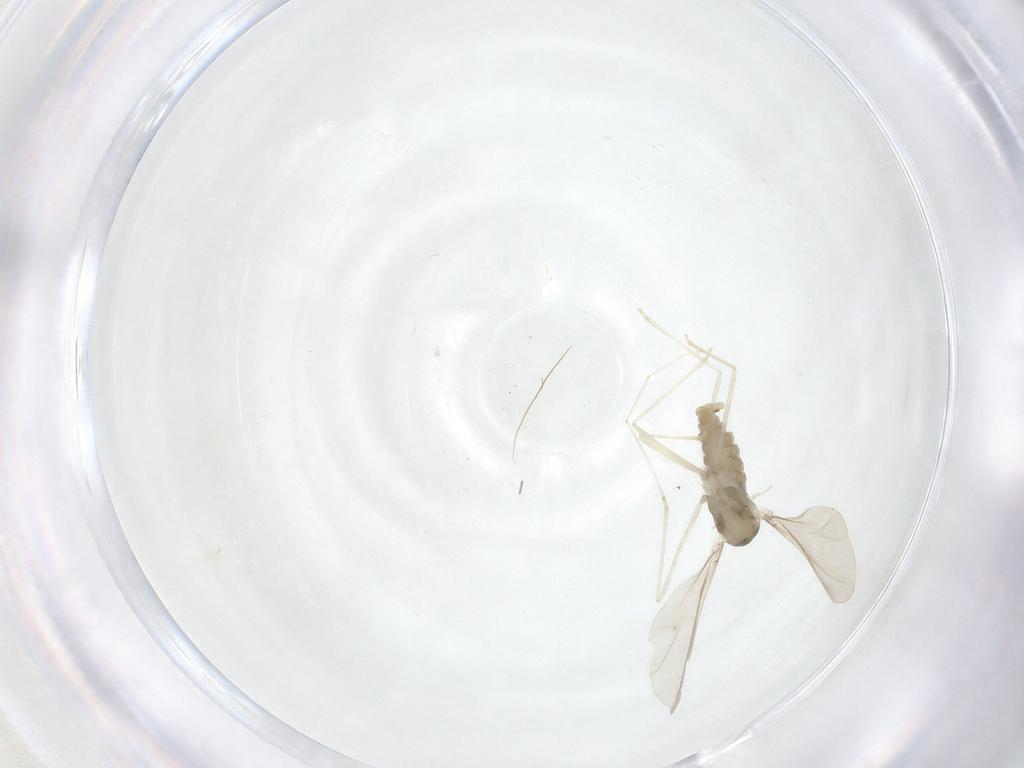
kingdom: Animalia
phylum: Arthropoda
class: Insecta
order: Diptera
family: Cecidomyiidae
